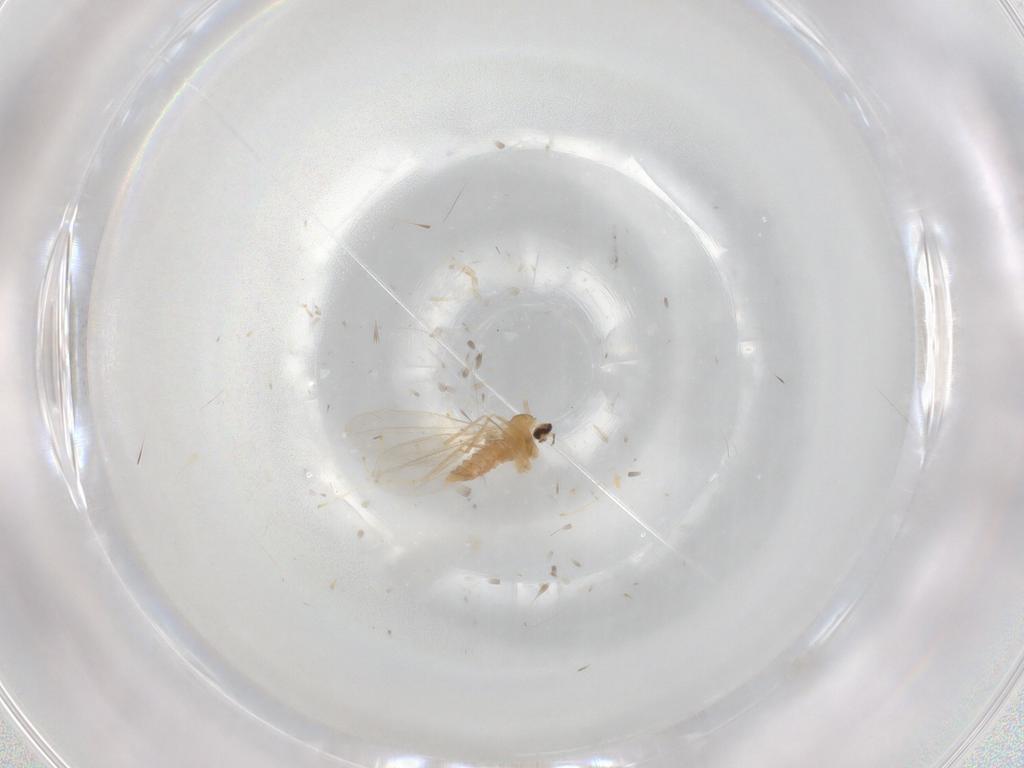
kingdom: Animalia
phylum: Arthropoda
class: Insecta
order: Diptera
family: Cecidomyiidae
